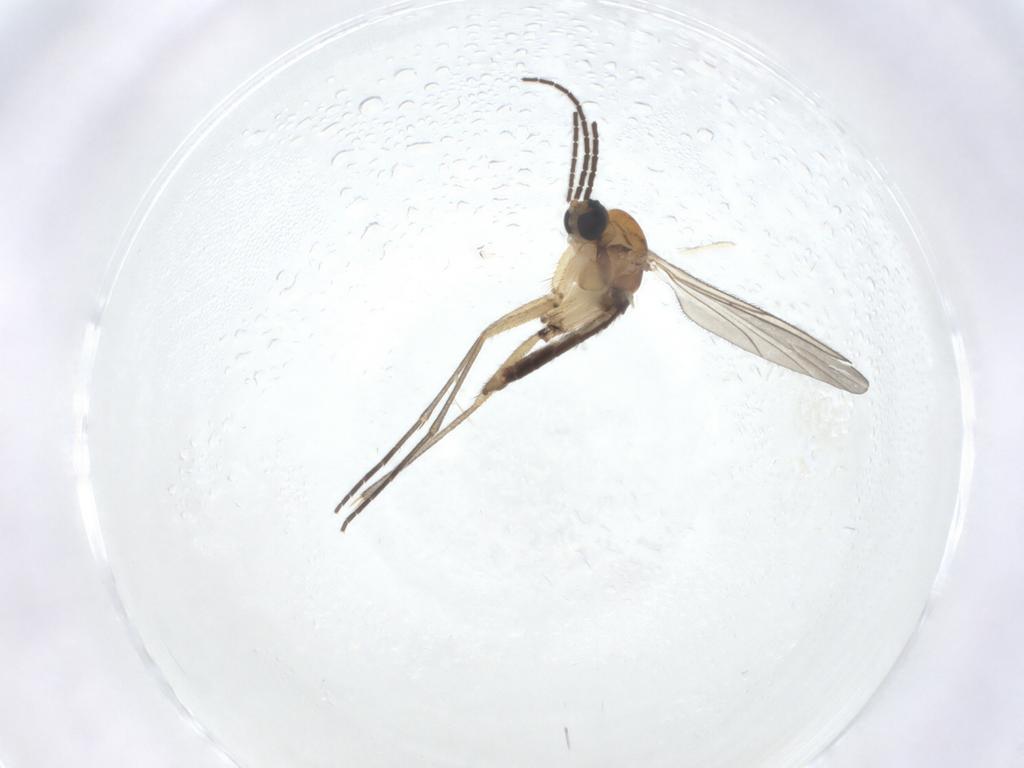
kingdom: Animalia
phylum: Arthropoda
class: Insecta
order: Diptera
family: Sciaridae
